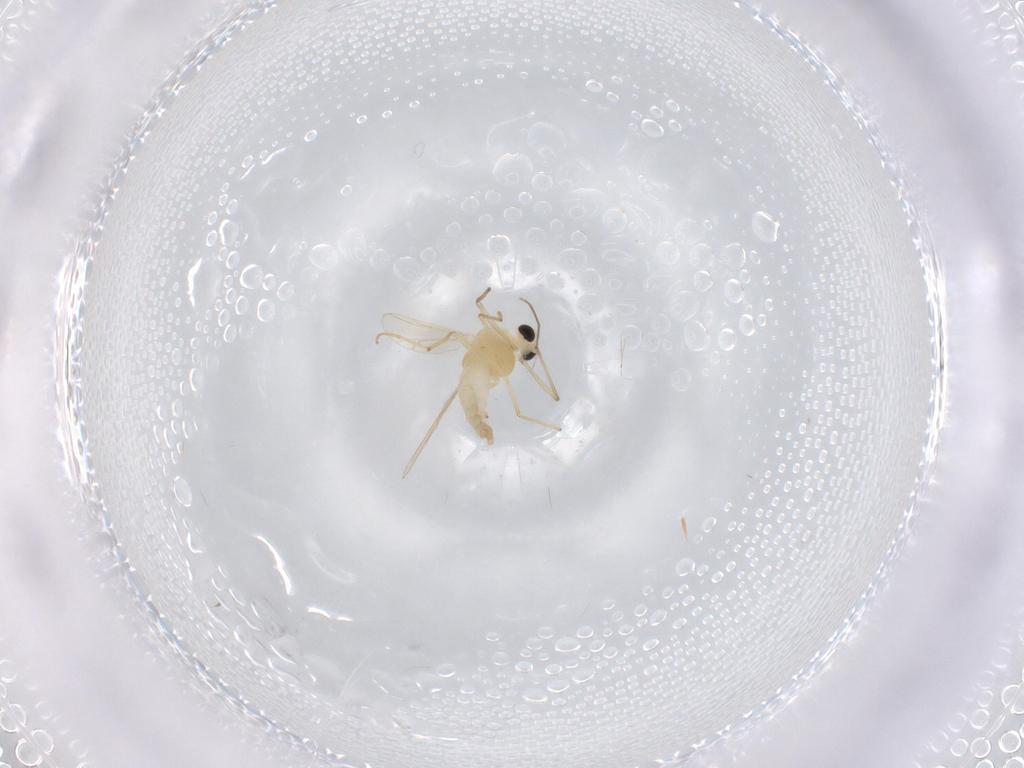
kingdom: Animalia
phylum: Arthropoda
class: Insecta
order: Diptera
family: Chironomidae
